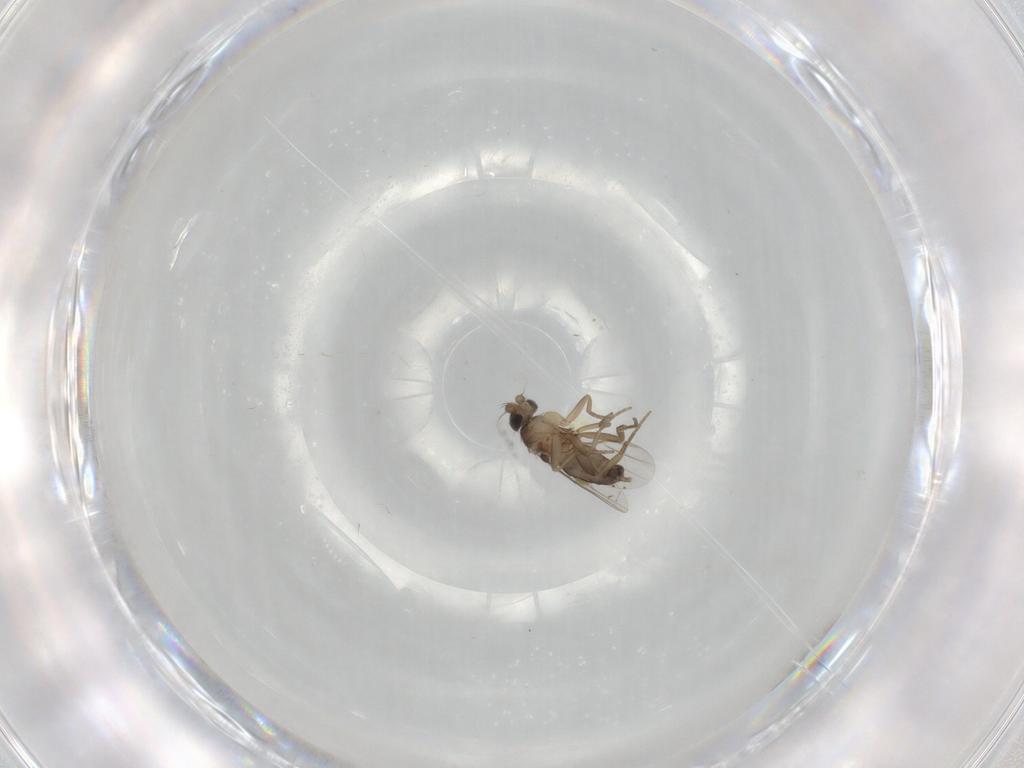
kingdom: Animalia
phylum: Arthropoda
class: Insecta
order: Diptera
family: Phoridae
